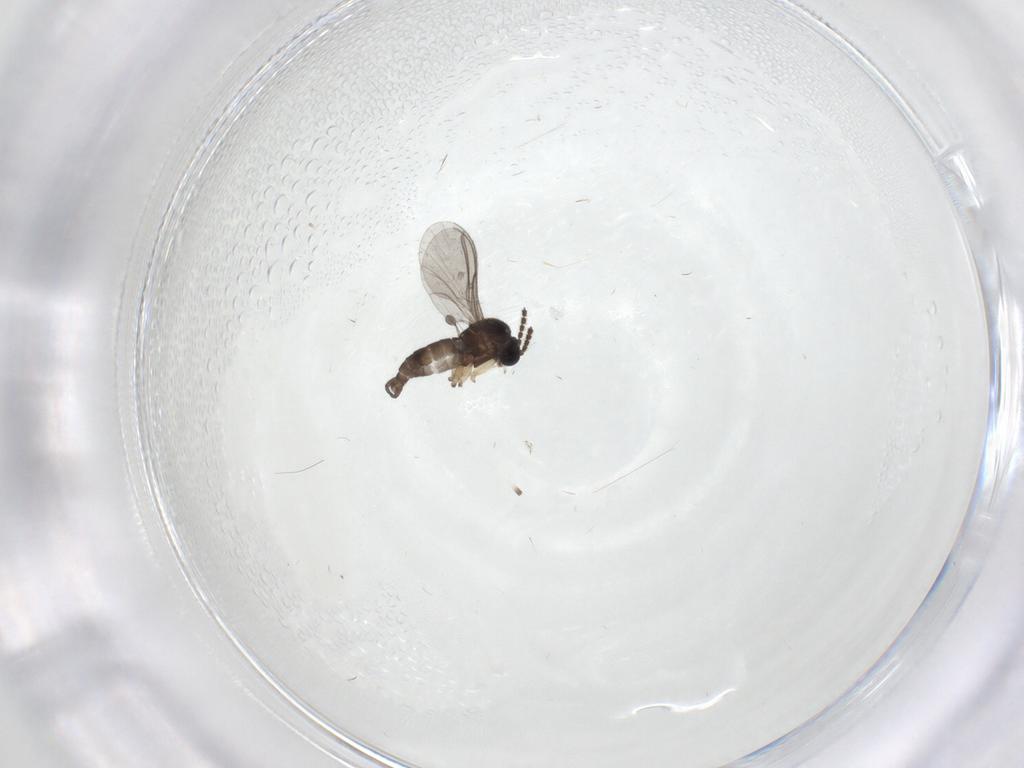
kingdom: Animalia
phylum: Arthropoda
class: Insecta
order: Diptera
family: Sciaridae
